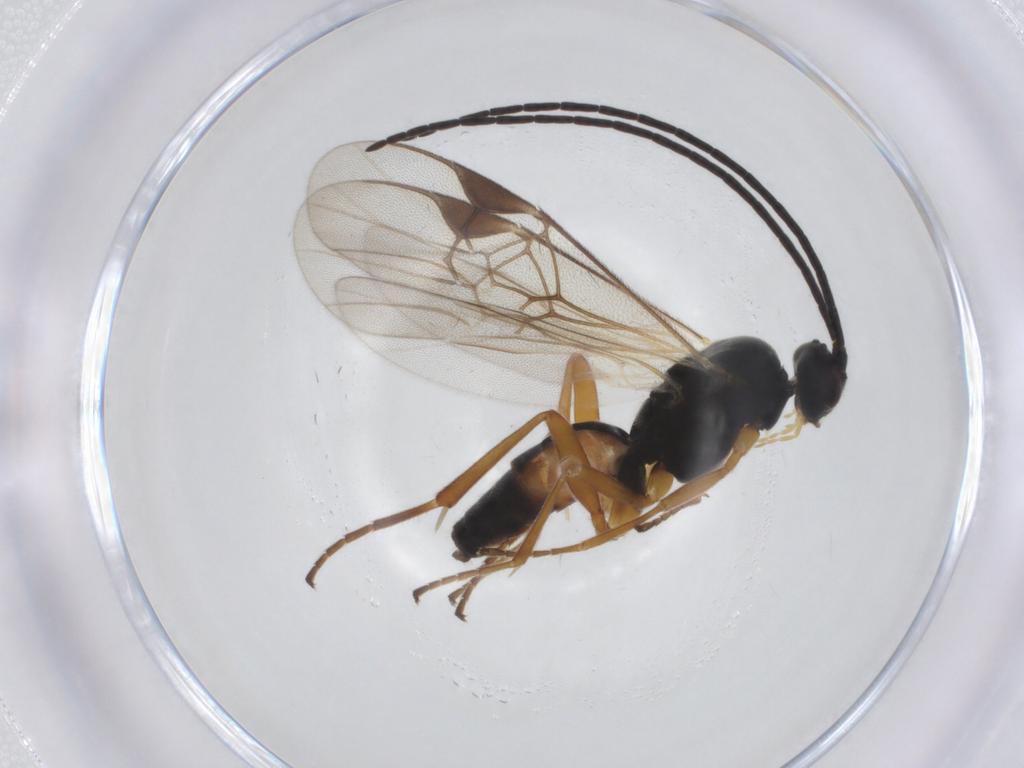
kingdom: Animalia
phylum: Arthropoda
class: Insecta
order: Hymenoptera
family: Braconidae
